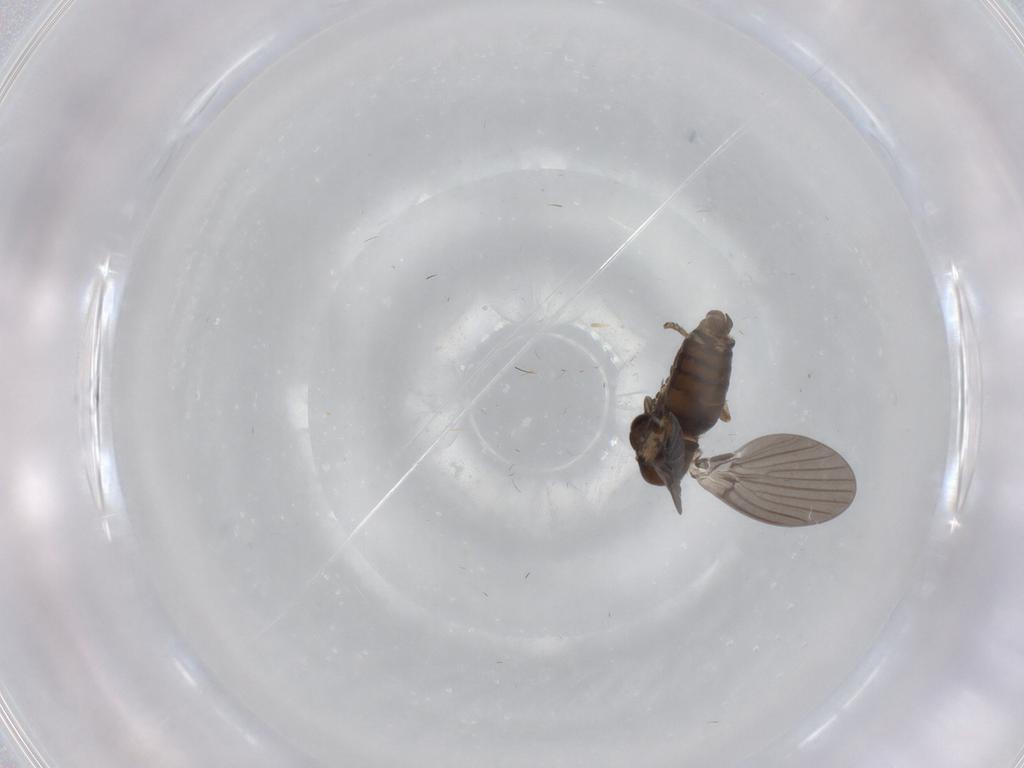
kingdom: Animalia
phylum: Arthropoda
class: Insecta
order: Diptera
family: Psychodidae
